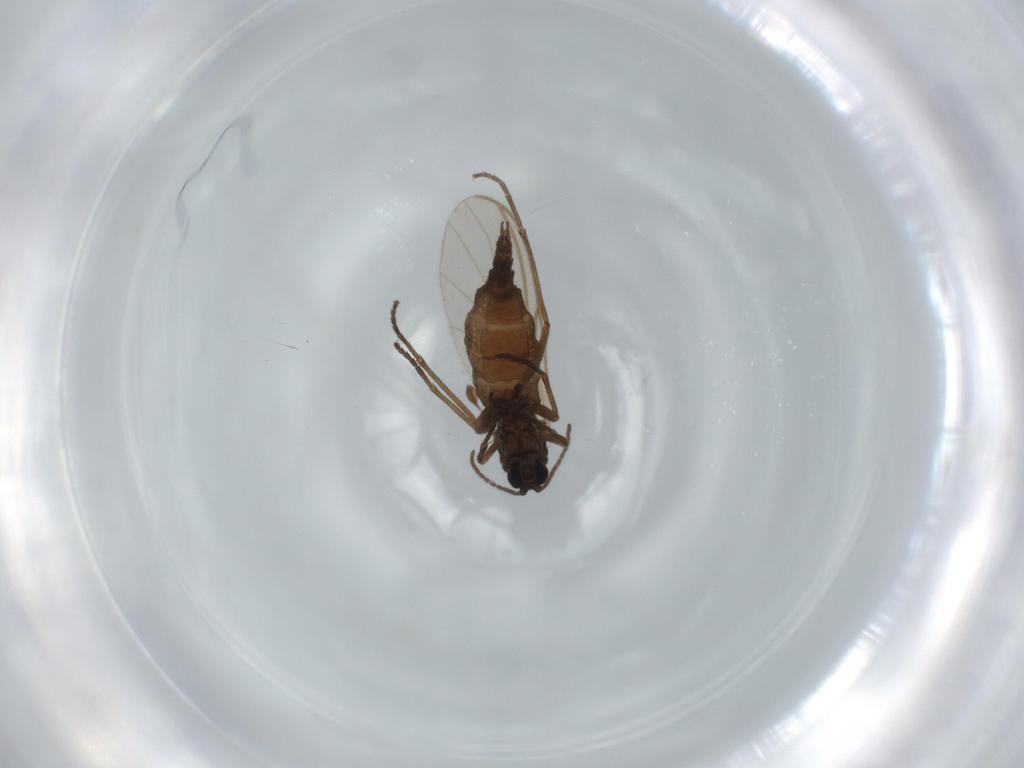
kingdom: Animalia
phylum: Arthropoda
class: Insecta
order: Diptera
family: Sciaridae
